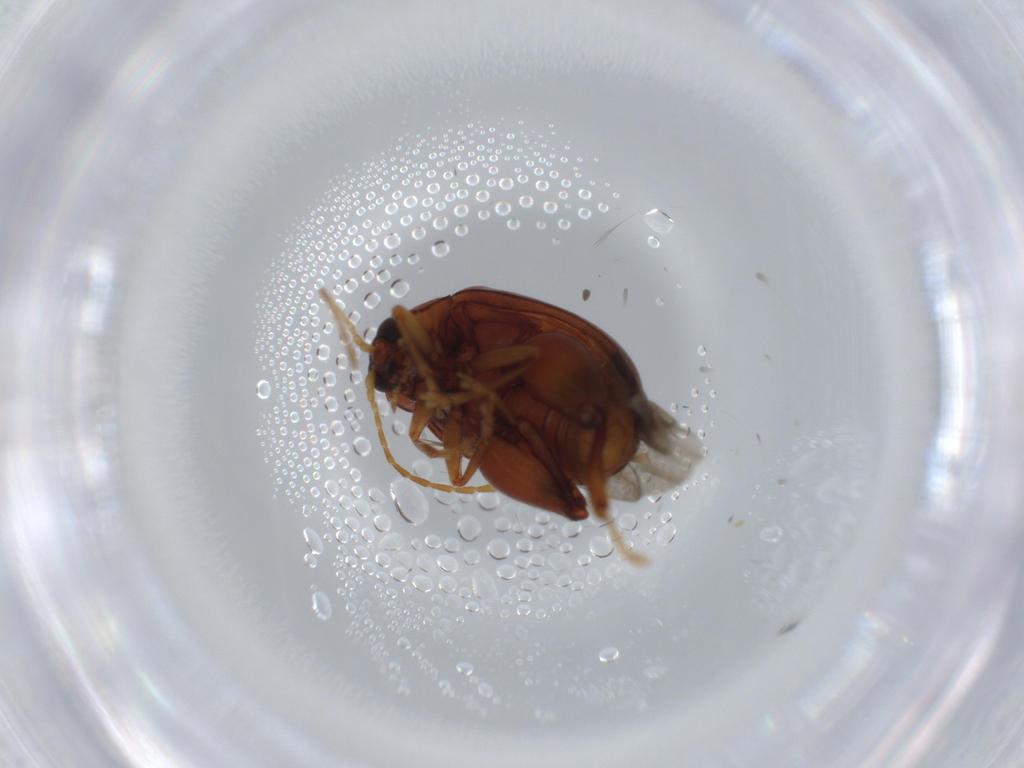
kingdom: Animalia
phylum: Arthropoda
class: Insecta
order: Coleoptera
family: Chrysomelidae
